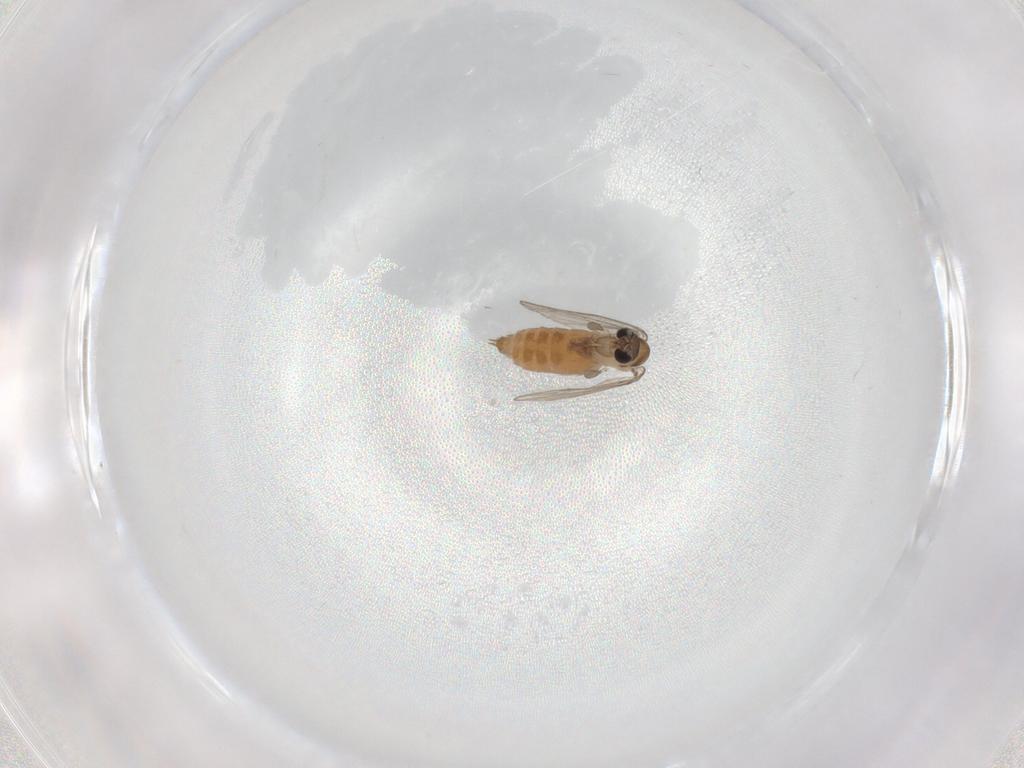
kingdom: Animalia
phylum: Arthropoda
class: Insecta
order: Diptera
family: Psychodidae
